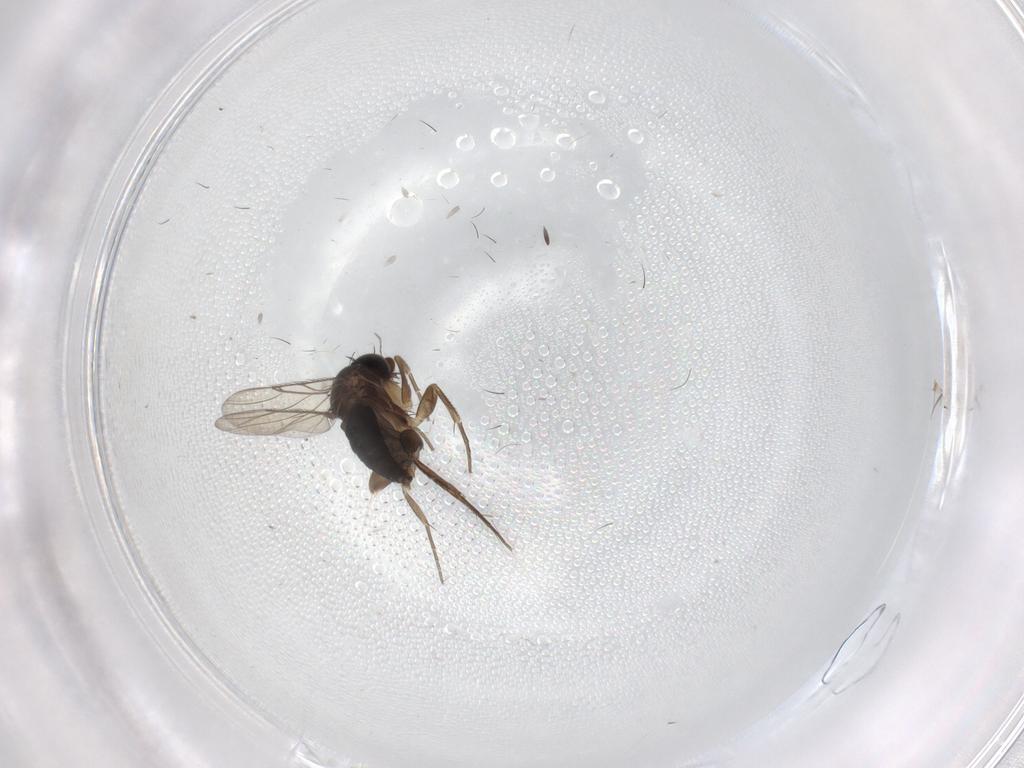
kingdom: Animalia
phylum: Arthropoda
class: Insecta
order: Diptera
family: Phoridae
